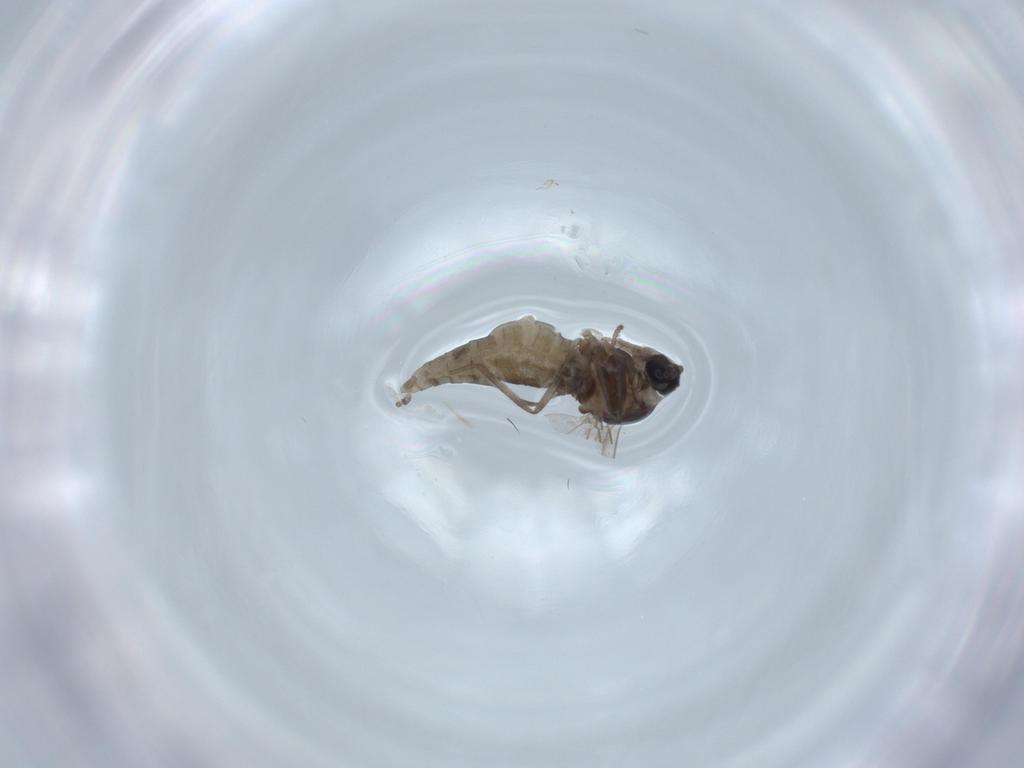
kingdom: Animalia
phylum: Arthropoda
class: Insecta
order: Diptera
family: Cecidomyiidae
